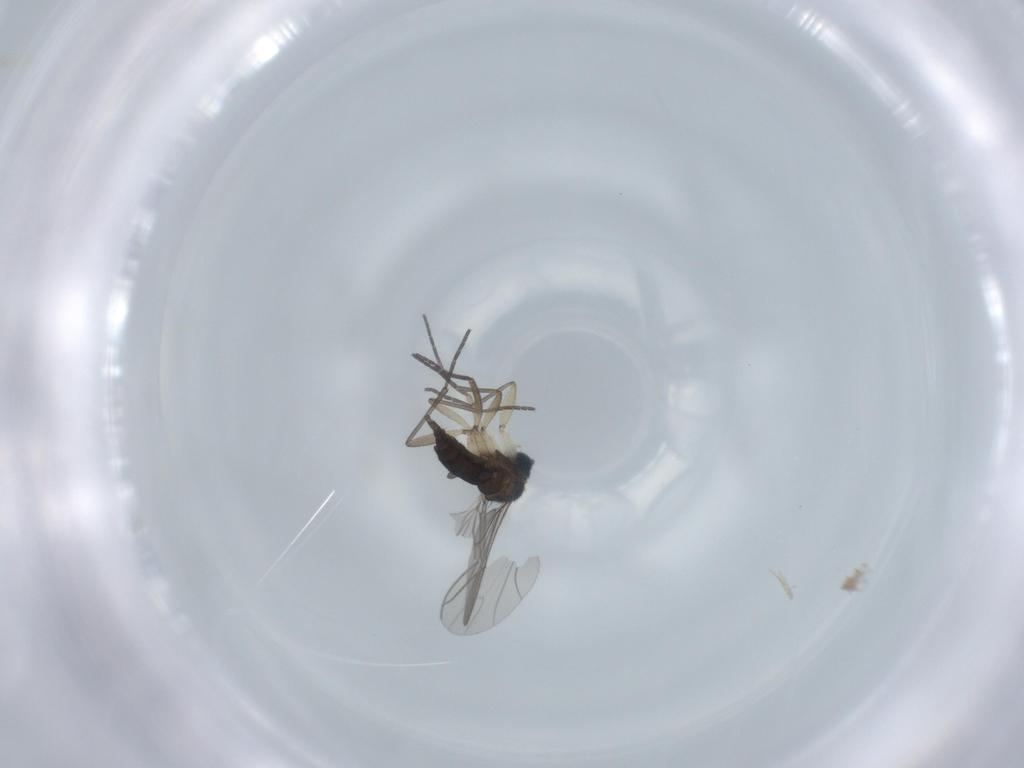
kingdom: Animalia
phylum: Arthropoda
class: Insecta
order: Diptera
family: Sciaridae
